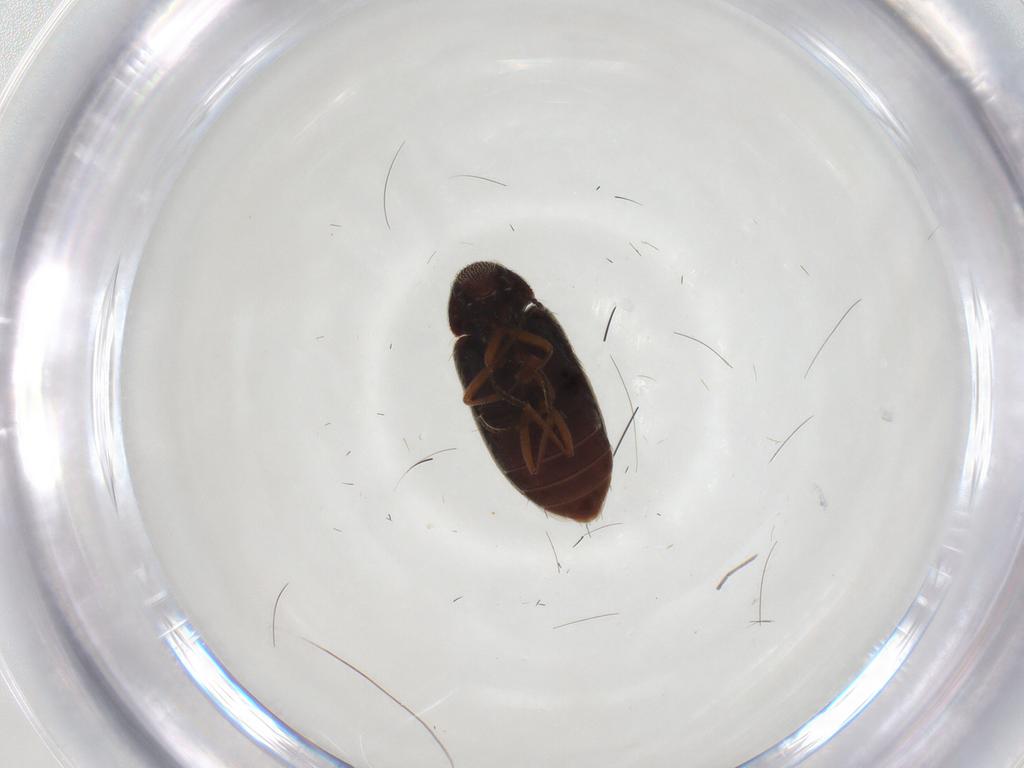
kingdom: Animalia
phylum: Arthropoda
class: Insecta
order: Coleoptera
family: Rhadalidae
